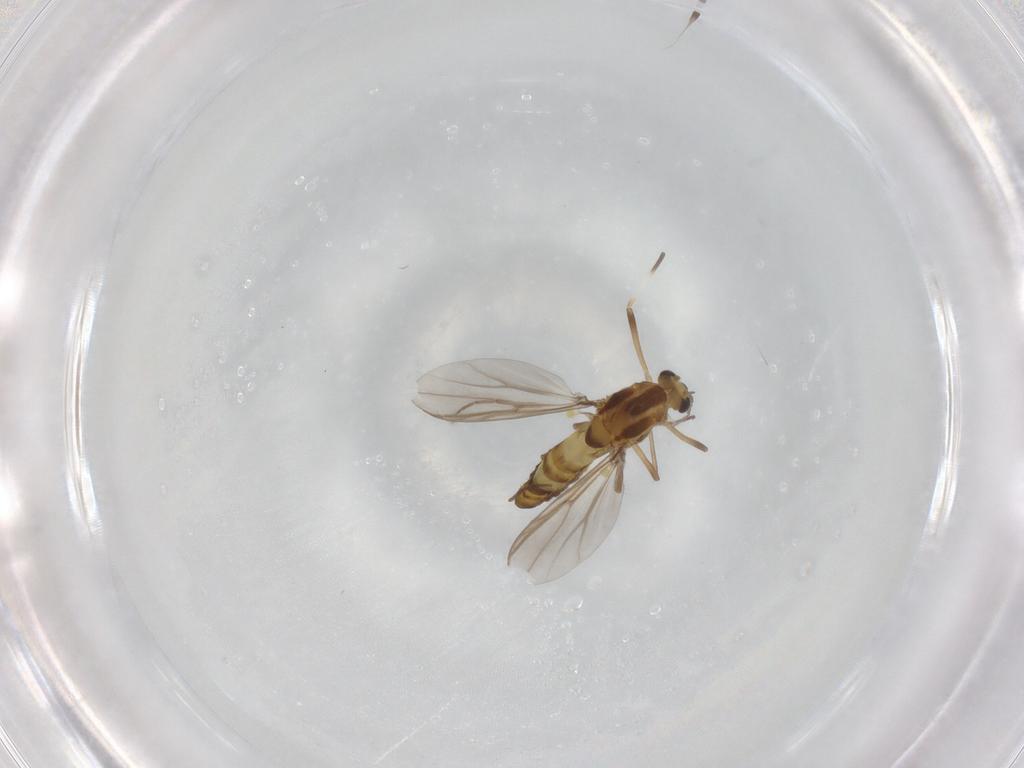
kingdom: Animalia
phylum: Arthropoda
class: Insecta
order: Diptera
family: Chironomidae
